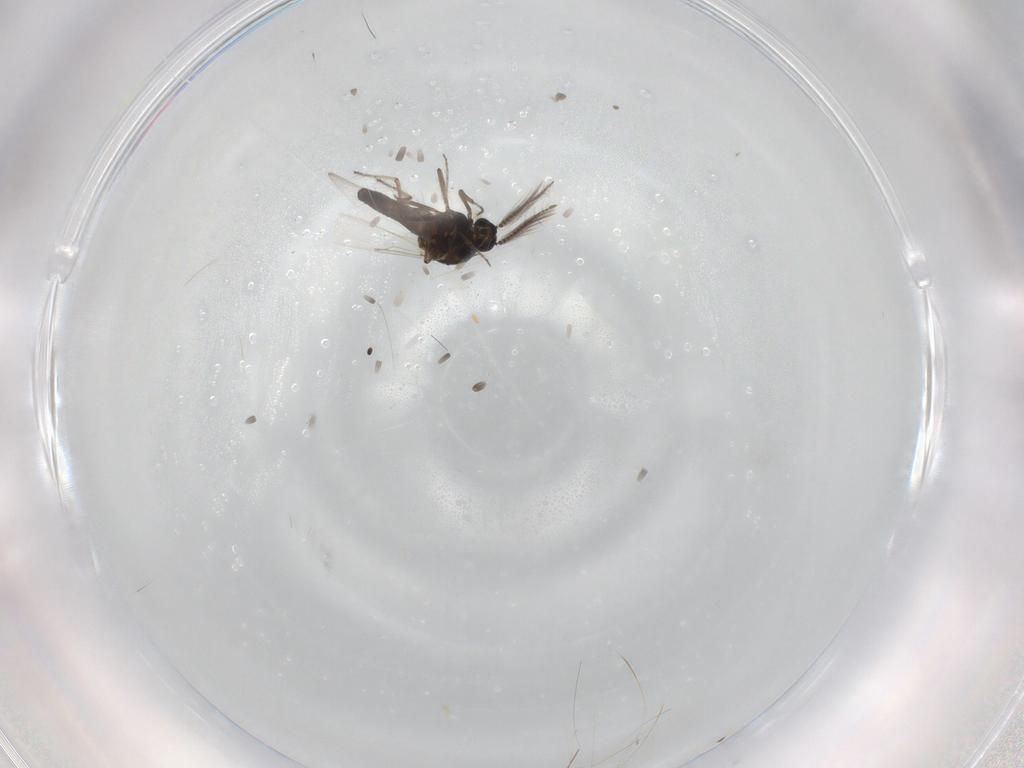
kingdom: Animalia
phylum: Arthropoda
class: Insecta
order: Diptera
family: Ceratopogonidae
